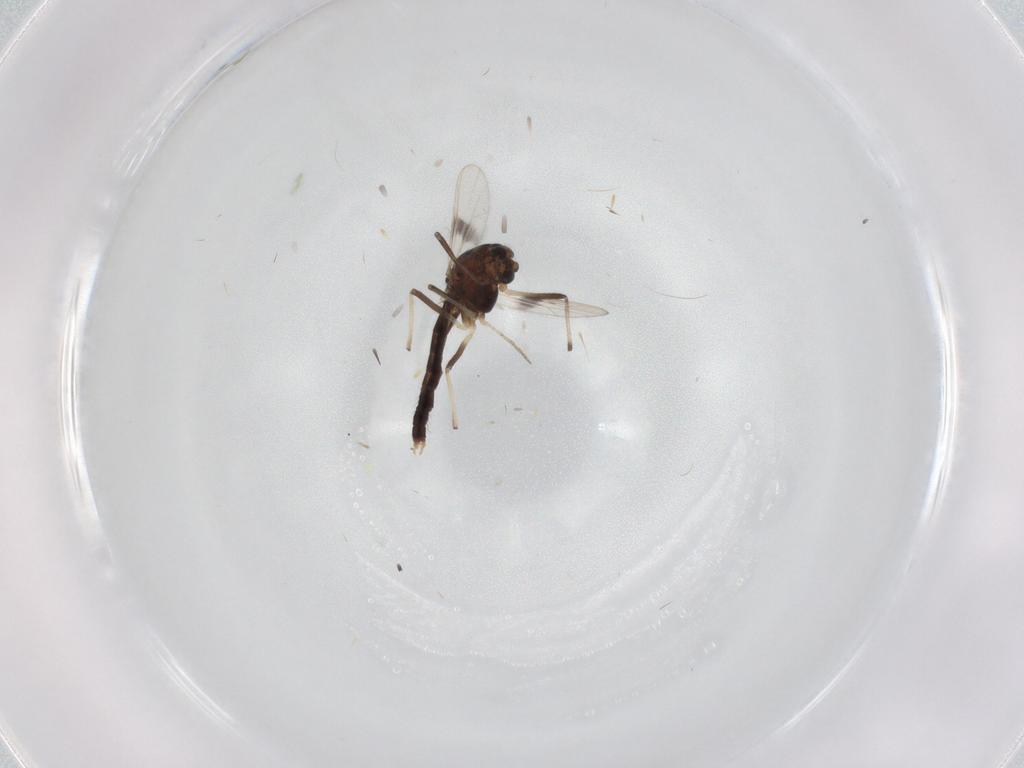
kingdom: Animalia
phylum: Arthropoda
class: Insecta
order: Diptera
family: Chironomidae
